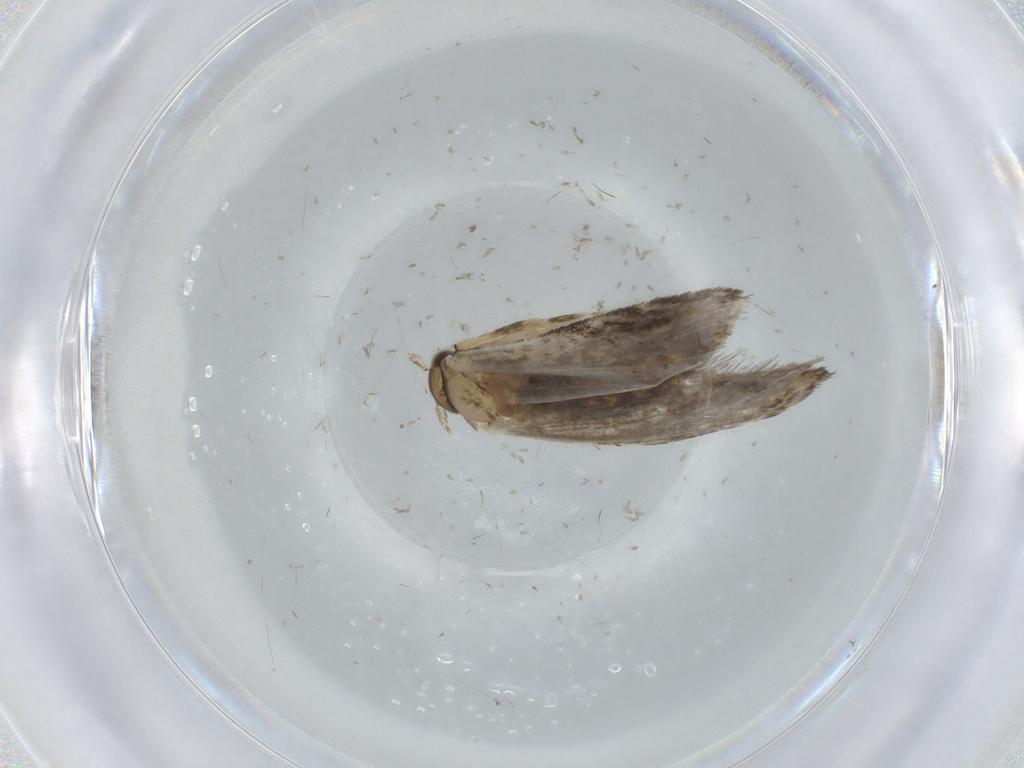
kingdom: Animalia
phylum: Arthropoda
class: Insecta
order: Lepidoptera
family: Tineidae
